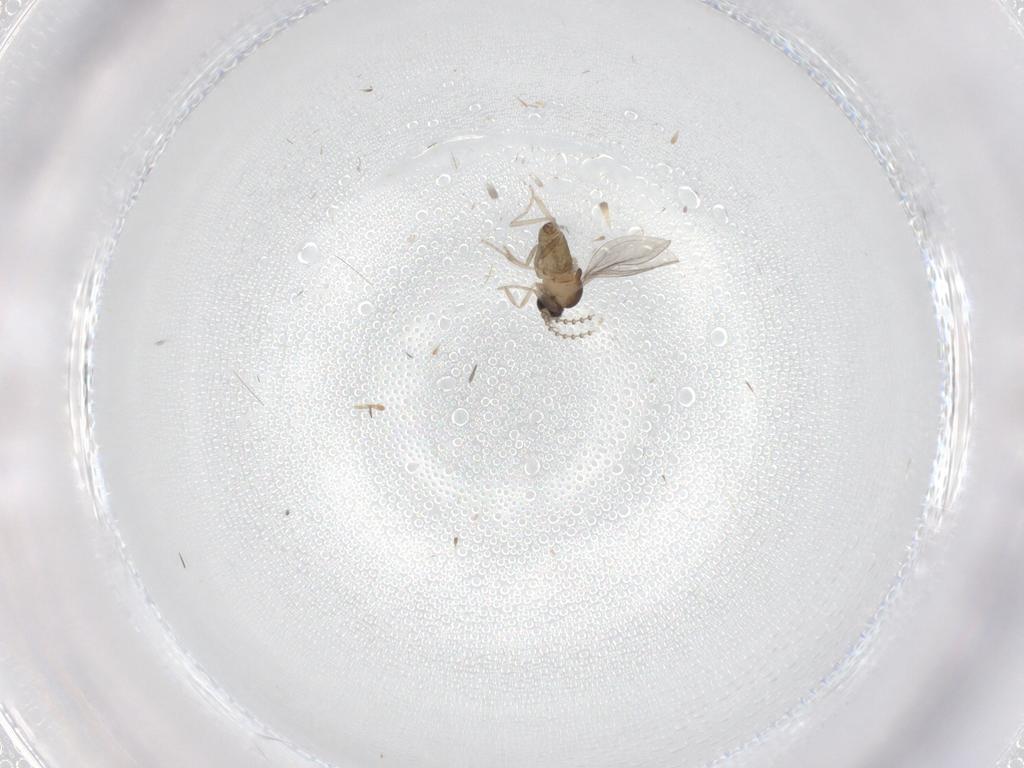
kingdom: Animalia
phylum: Arthropoda
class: Insecta
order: Diptera
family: Cecidomyiidae
